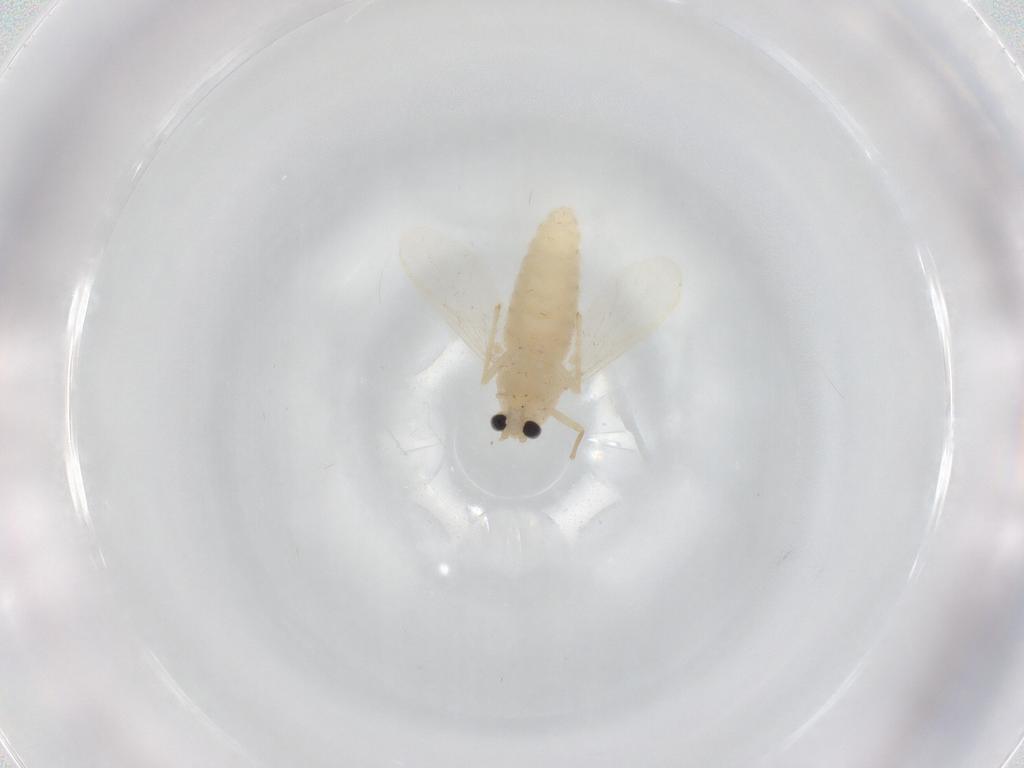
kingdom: Animalia
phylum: Arthropoda
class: Insecta
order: Diptera
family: Chironomidae
